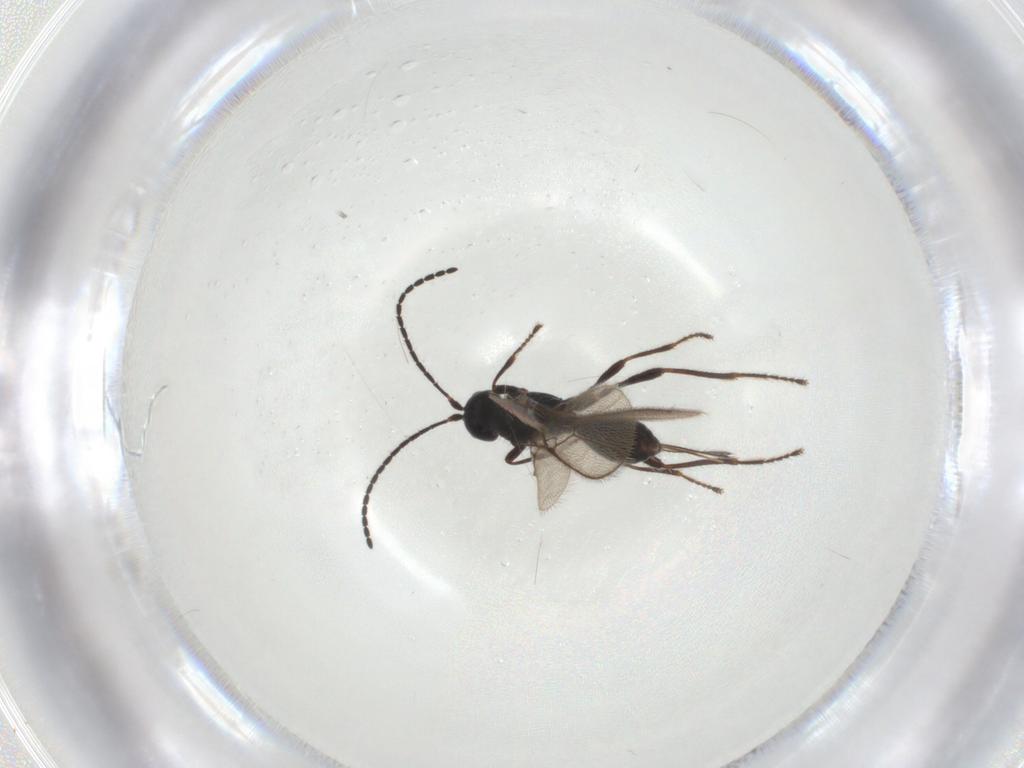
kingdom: Animalia
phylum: Arthropoda
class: Insecta
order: Hymenoptera
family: Braconidae
